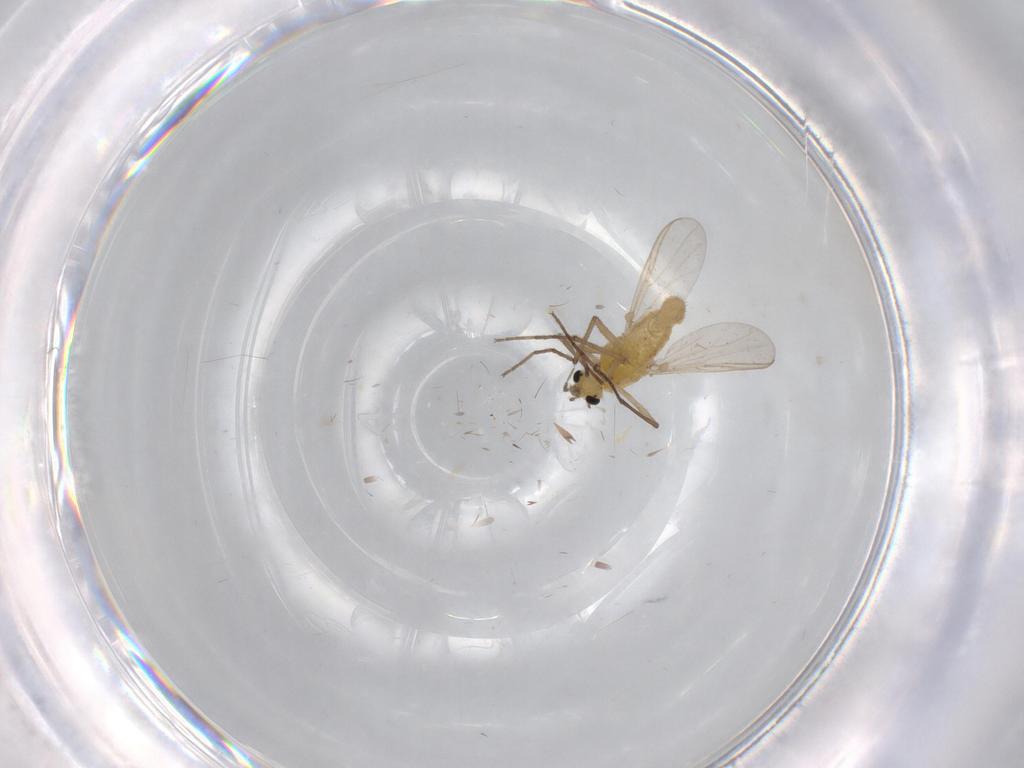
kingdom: Animalia
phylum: Arthropoda
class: Insecta
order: Diptera
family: Chironomidae
